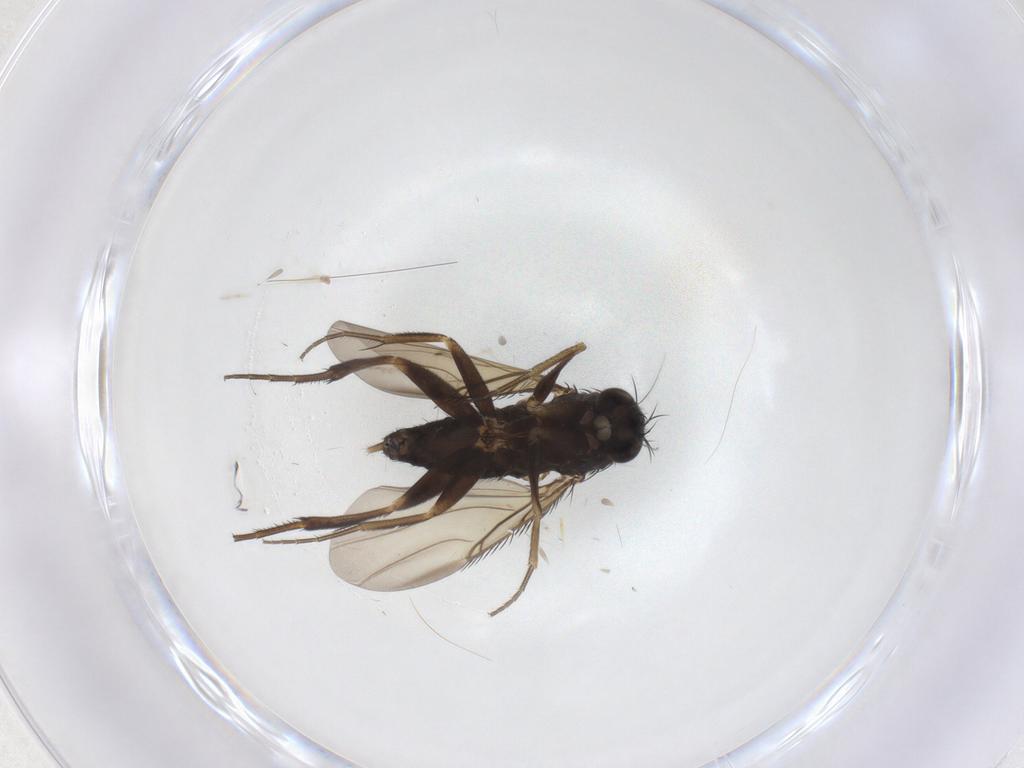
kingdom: Animalia
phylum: Arthropoda
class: Insecta
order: Diptera
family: Phoridae
